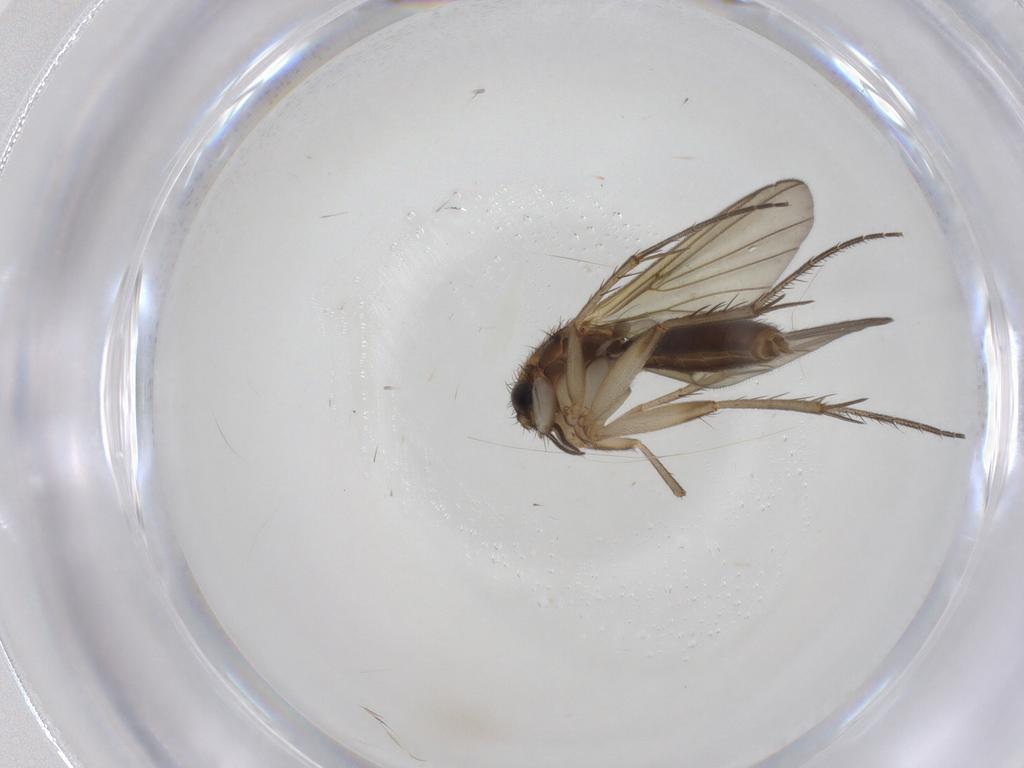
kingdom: Animalia
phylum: Arthropoda
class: Insecta
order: Diptera
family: Mycetophilidae
